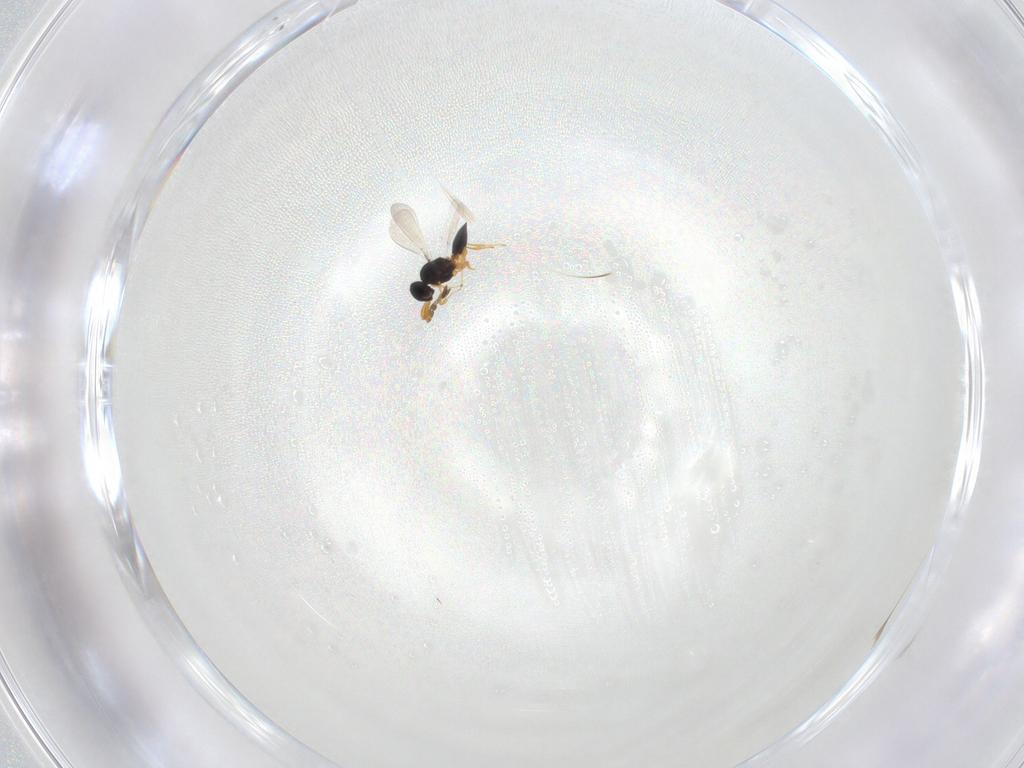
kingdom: Animalia
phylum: Arthropoda
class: Insecta
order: Diptera
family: Ceratopogonidae
